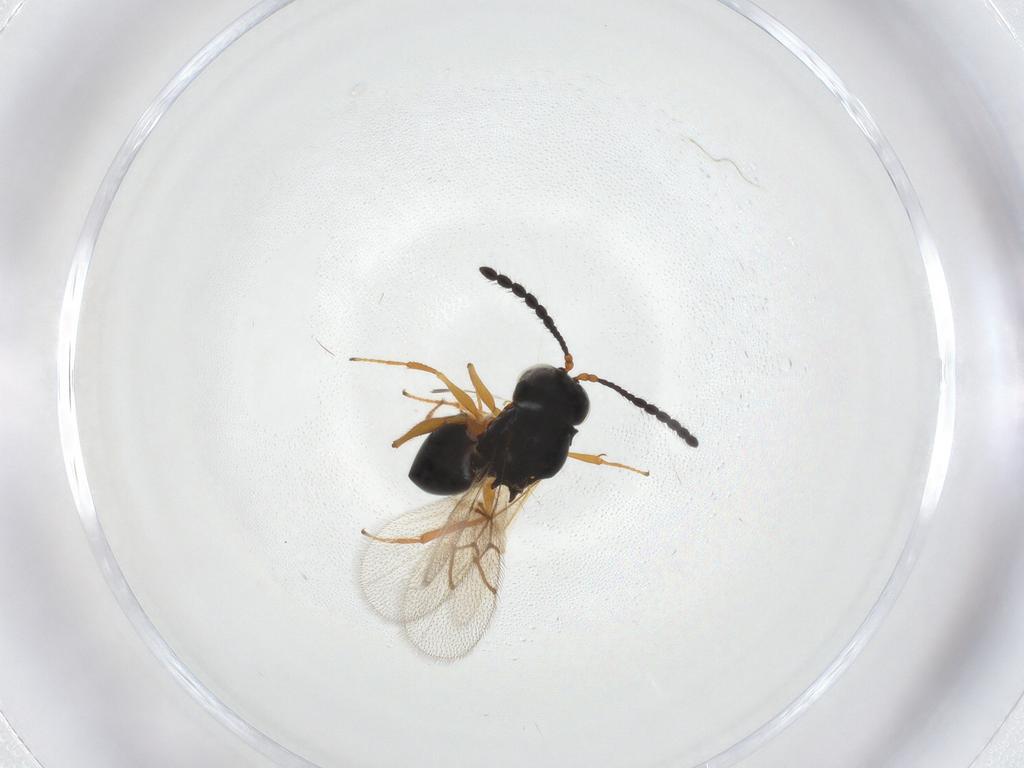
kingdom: Animalia
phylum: Arthropoda
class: Insecta
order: Hymenoptera
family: Figitidae
